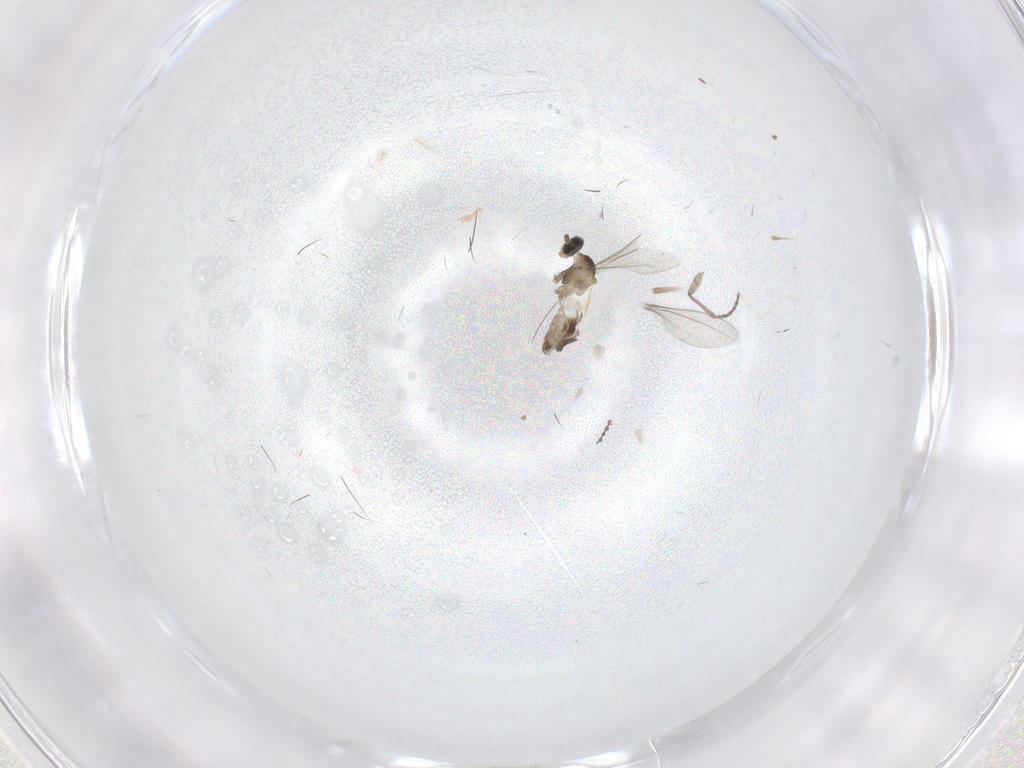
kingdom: Animalia
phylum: Arthropoda
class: Insecta
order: Diptera
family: Cecidomyiidae
